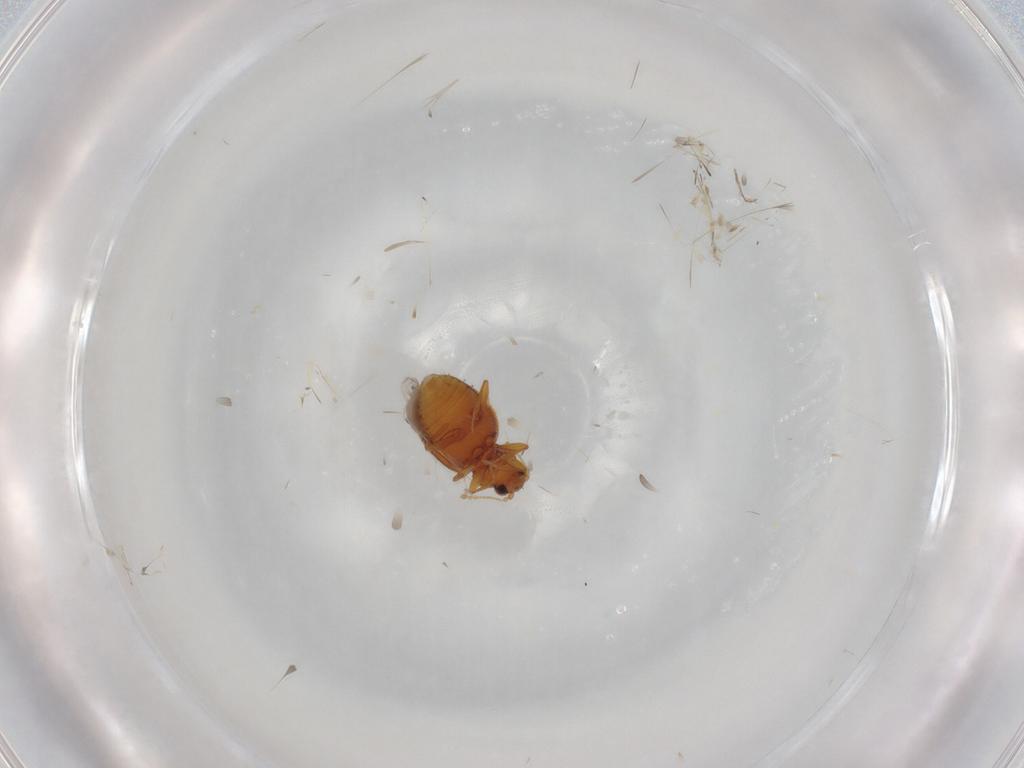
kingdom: Animalia
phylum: Arthropoda
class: Insecta
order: Coleoptera
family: Latridiidae
